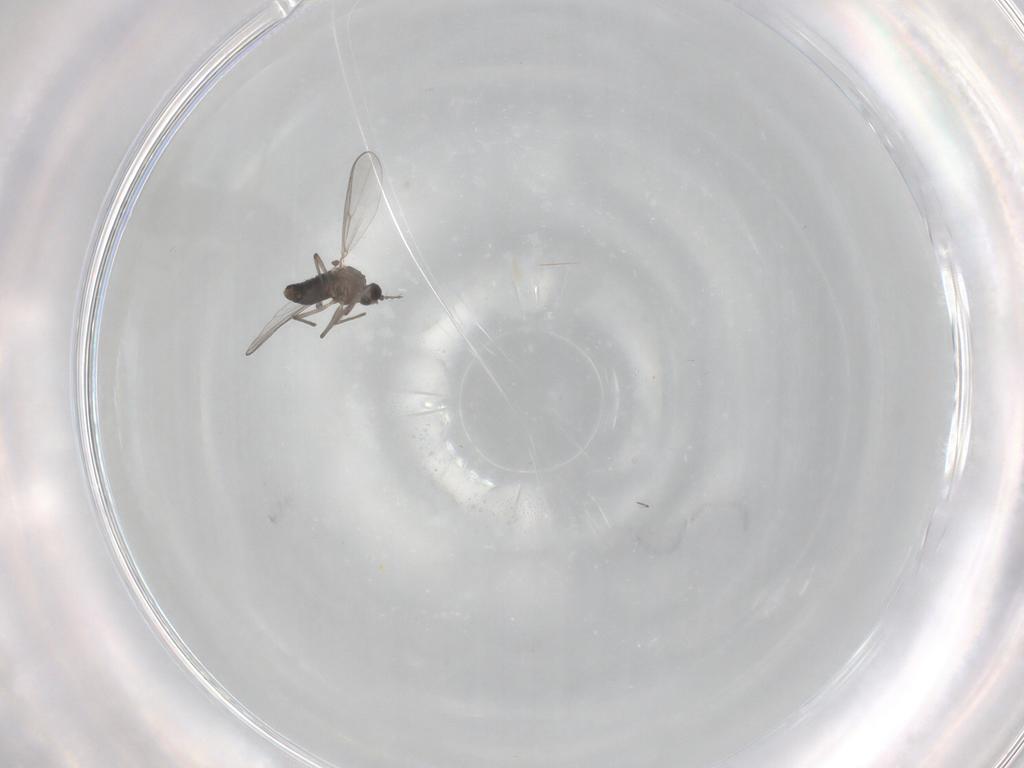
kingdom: Animalia
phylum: Arthropoda
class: Insecta
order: Diptera
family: Chironomidae
